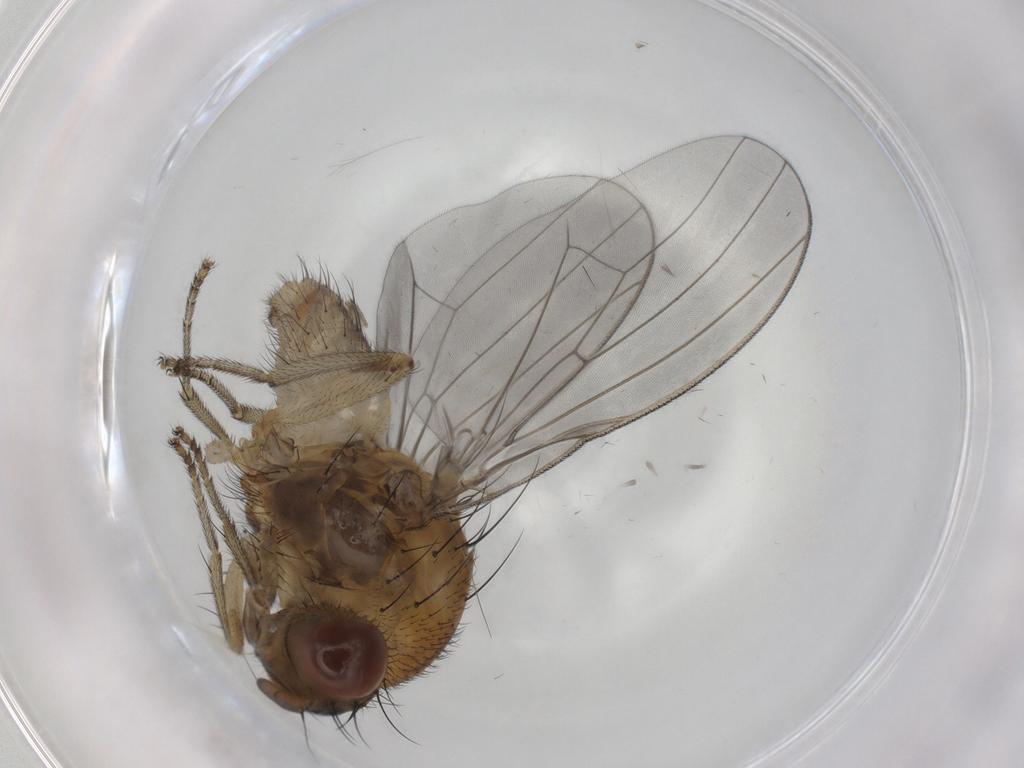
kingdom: Animalia
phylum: Arthropoda
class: Insecta
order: Diptera
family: Lauxaniidae
